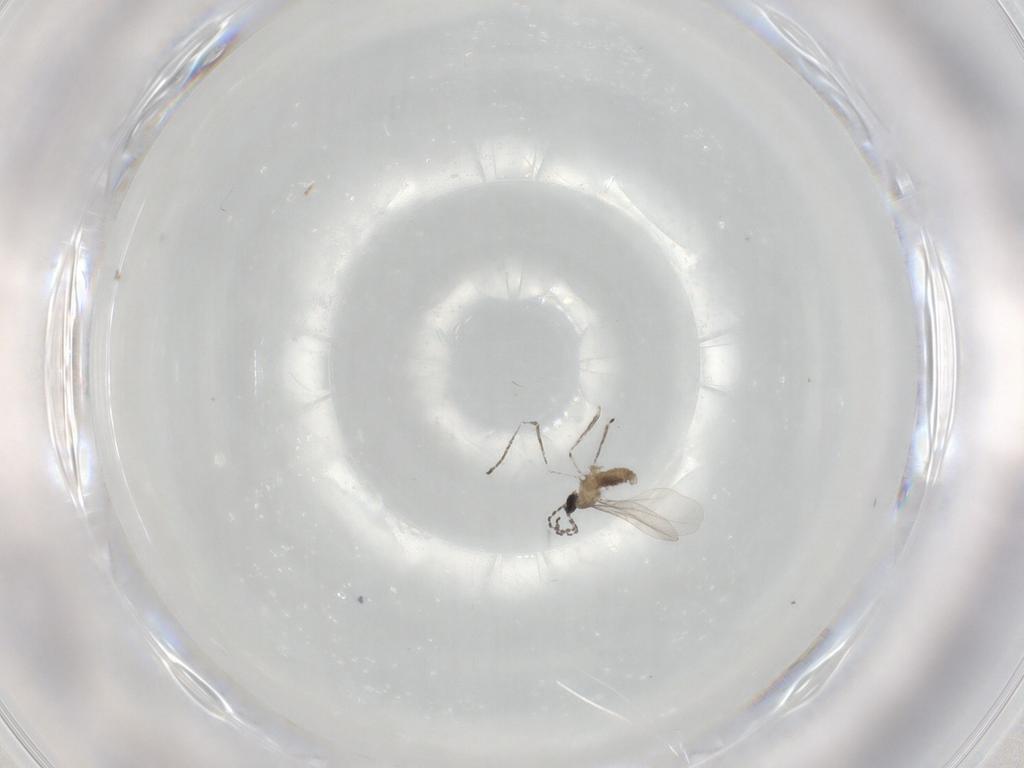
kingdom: Animalia
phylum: Arthropoda
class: Insecta
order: Diptera
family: Cecidomyiidae
